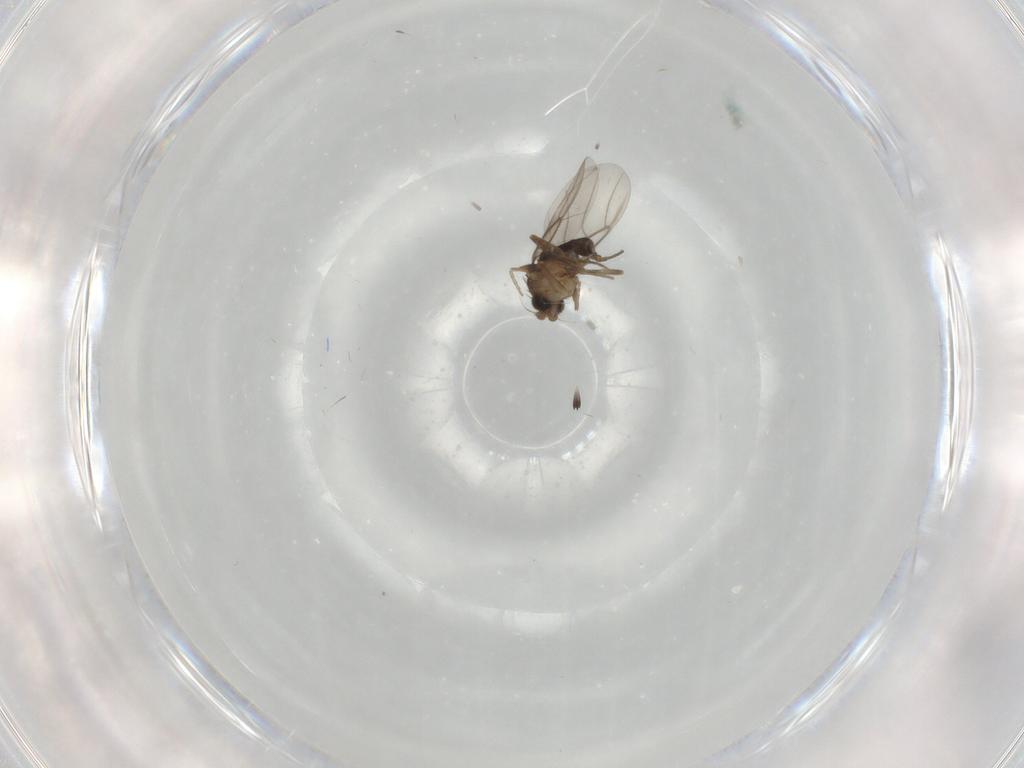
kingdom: Animalia
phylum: Arthropoda
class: Insecta
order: Diptera
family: Phoridae
